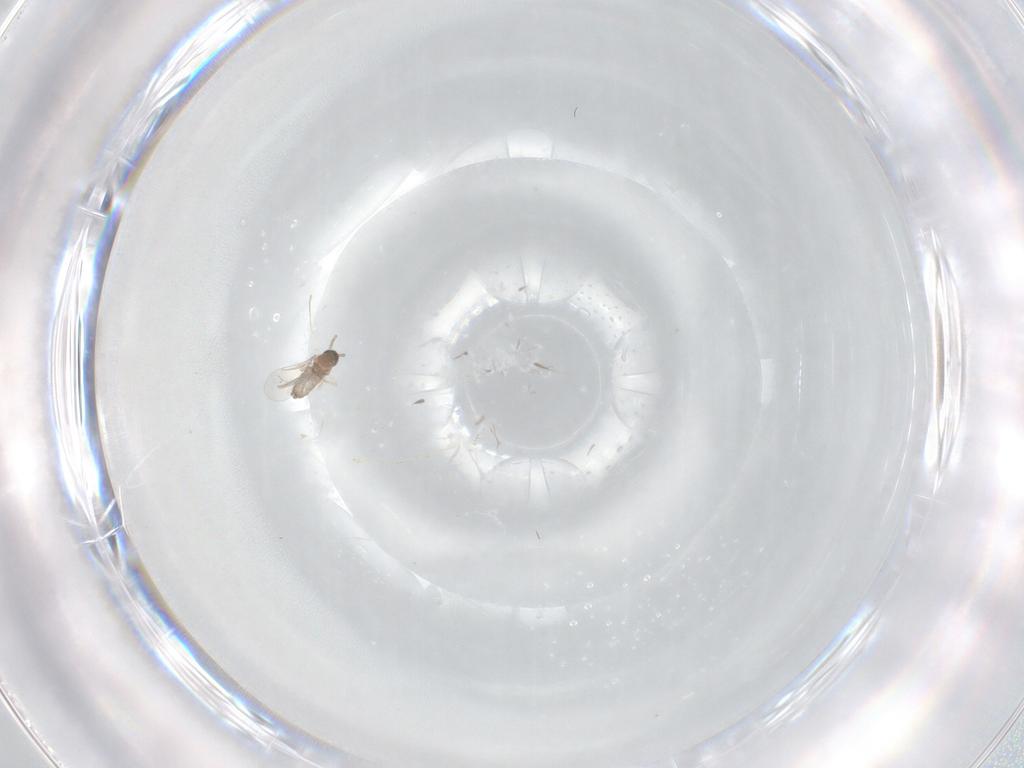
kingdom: Animalia
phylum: Arthropoda
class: Insecta
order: Diptera
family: Cecidomyiidae
